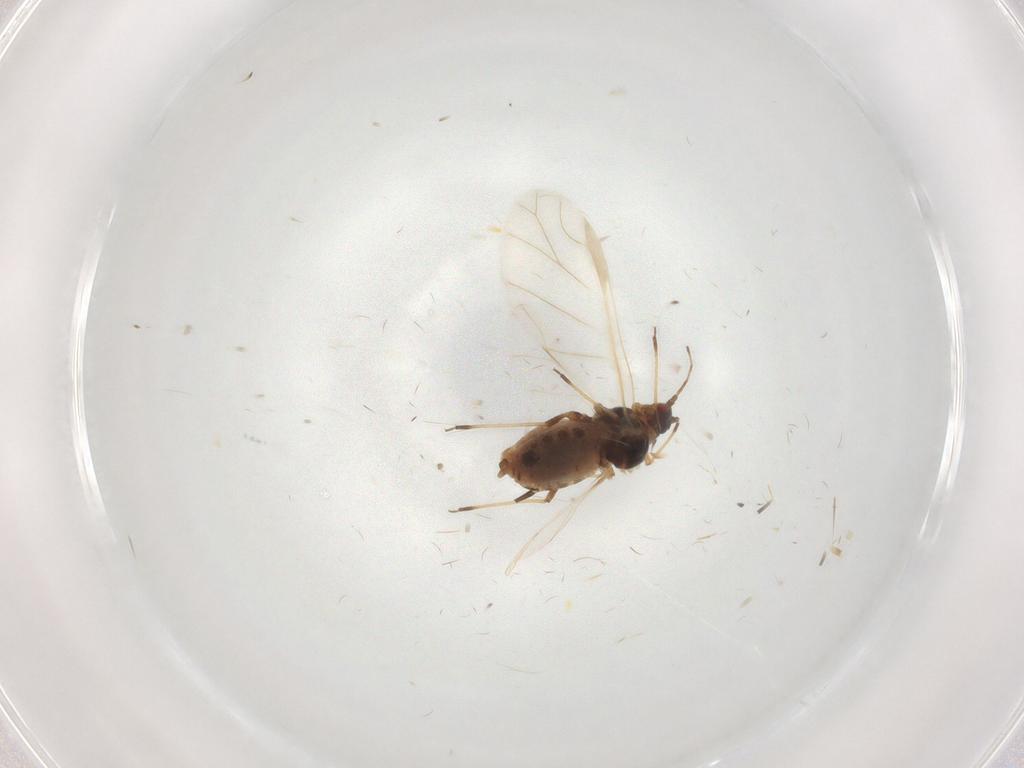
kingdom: Animalia
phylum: Arthropoda
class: Insecta
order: Hemiptera
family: Aphididae
